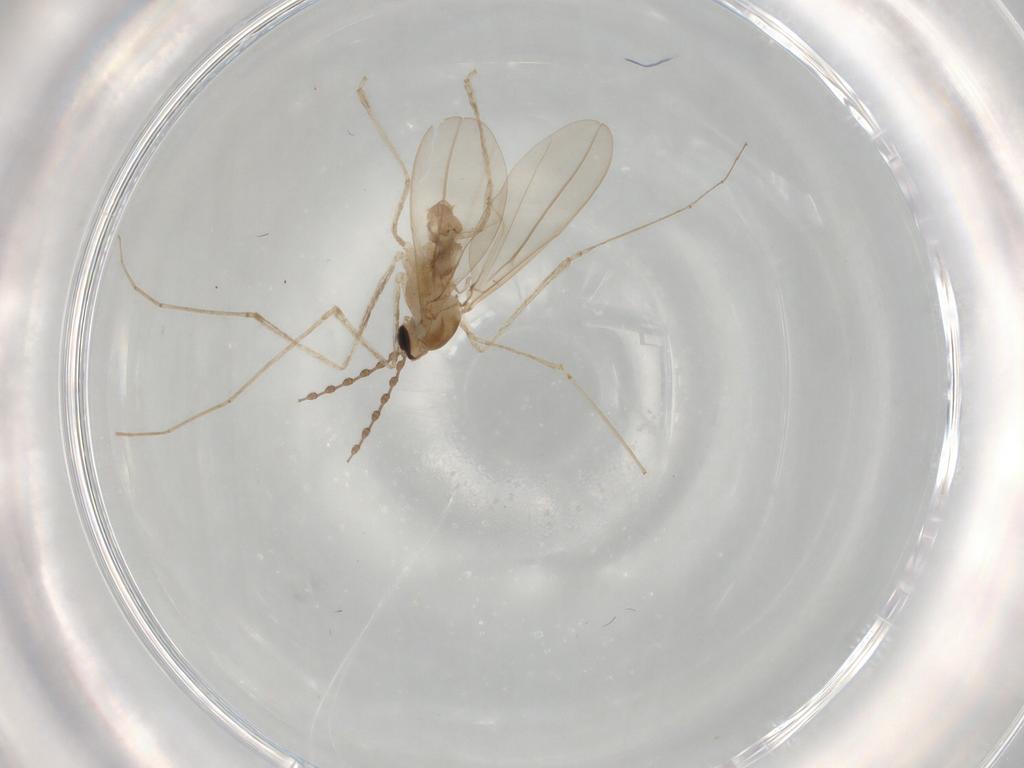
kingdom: Animalia
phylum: Arthropoda
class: Insecta
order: Diptera
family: Cecidomyiidae
